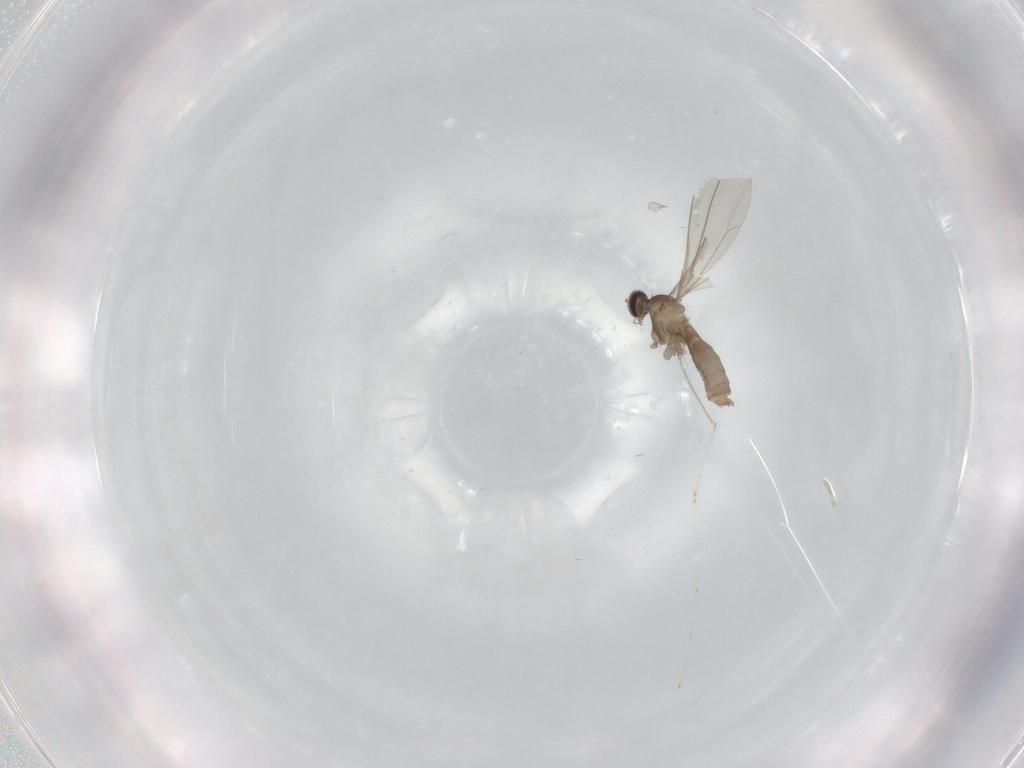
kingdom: Animalia
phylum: Arthropoda
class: Insecta
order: Diptera
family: Cecidomyiidae
